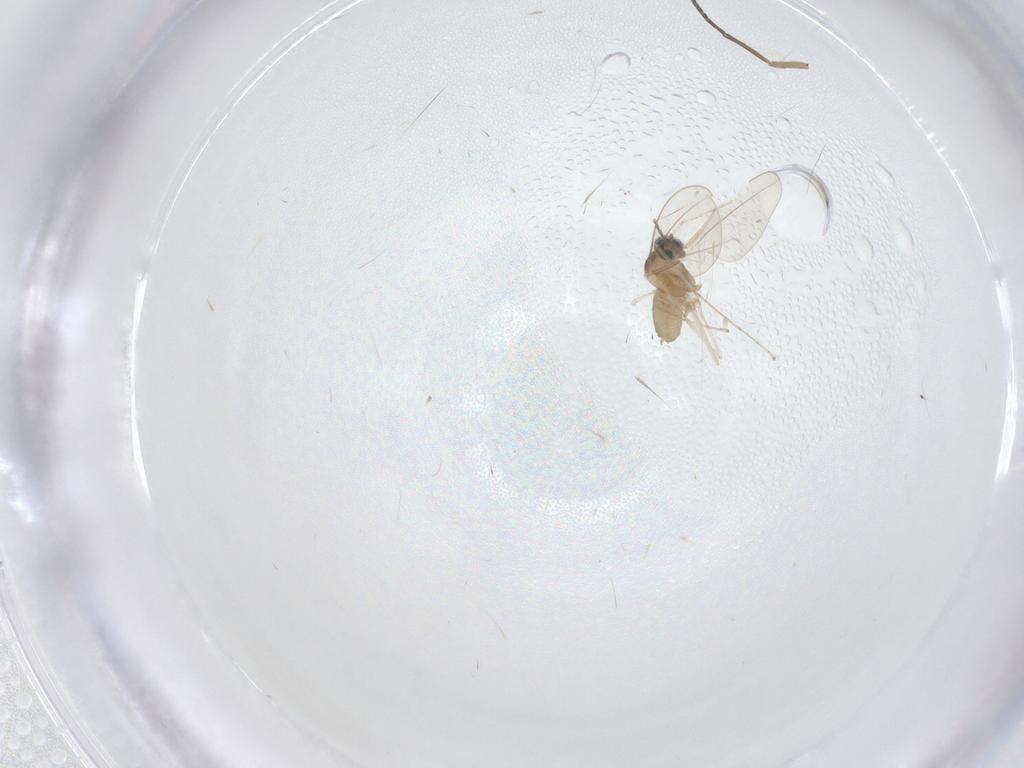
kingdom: Animalia
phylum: Arthropoda
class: Insecta
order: Diptera
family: Cecidomyiidae
